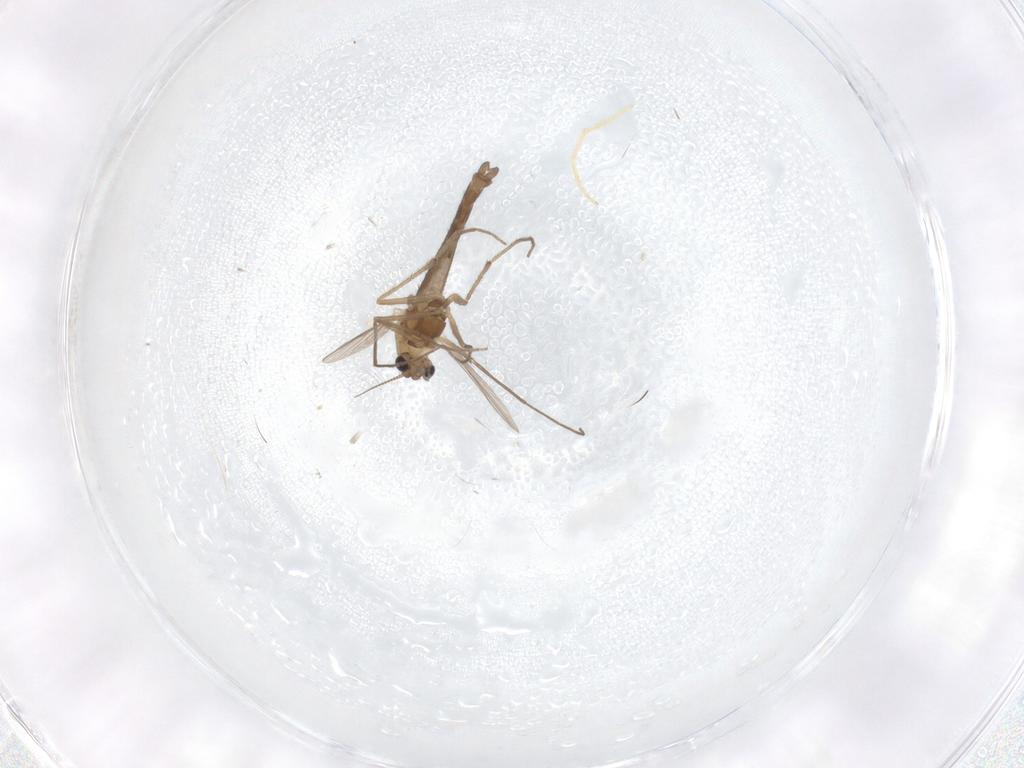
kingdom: Animalia
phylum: Arthropoda
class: Insecta
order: Diptera
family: Chironomidae
